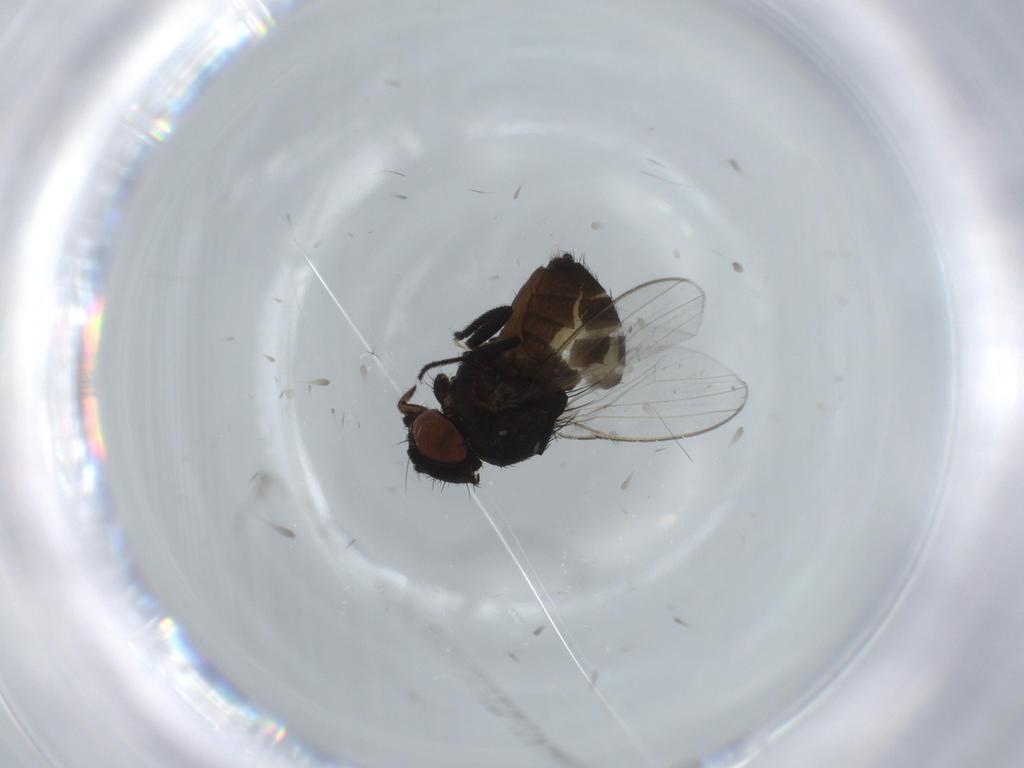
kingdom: Animalia
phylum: Arthropoda
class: Insecta
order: Diptera
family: Milichiidae
